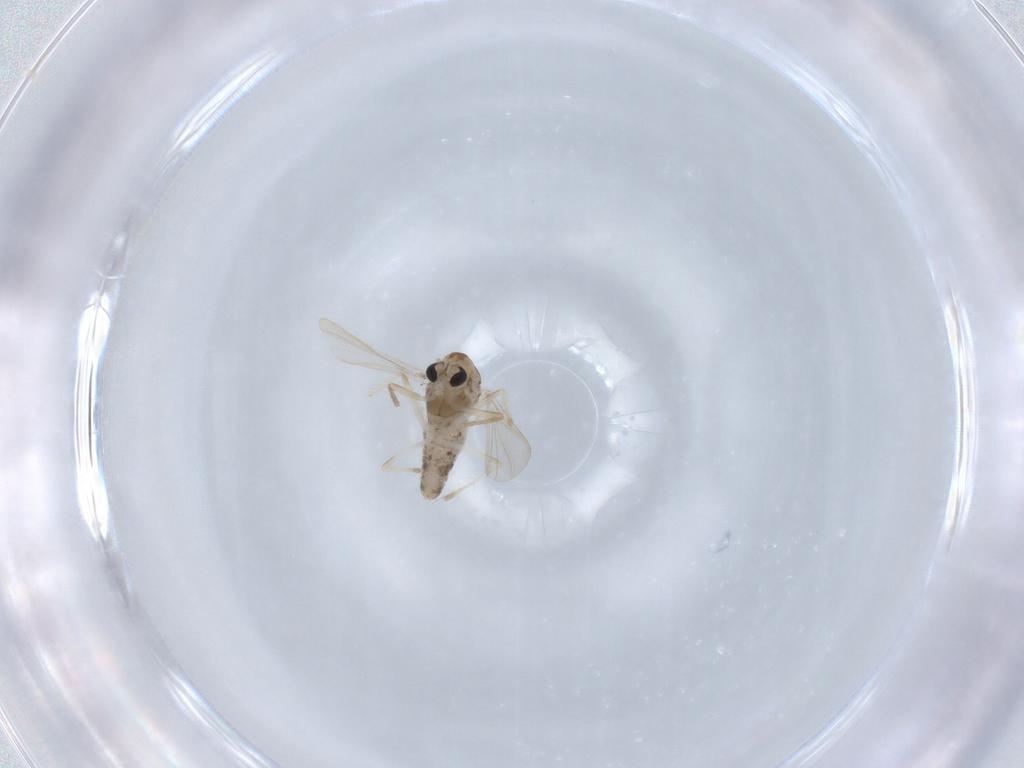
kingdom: Animalia
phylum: Arthropoda
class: Insecta
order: Diptera
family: Chironomidae
